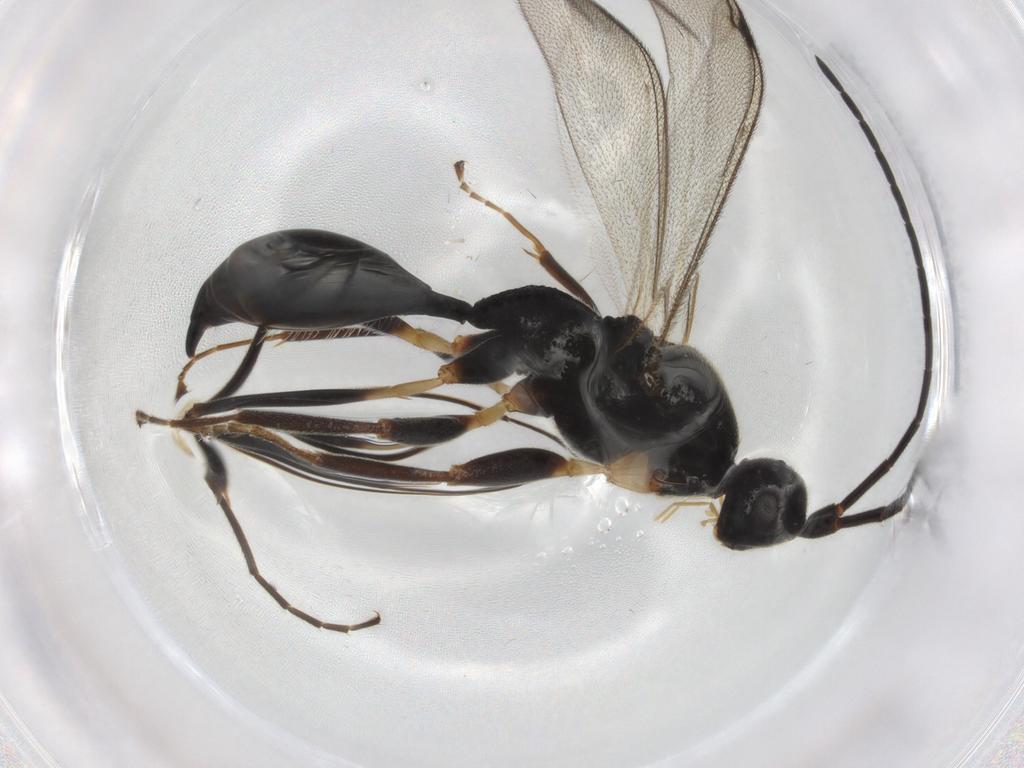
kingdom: Animalia
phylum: Arthropoda
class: Insecta
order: Hymenoptera
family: Proctotrupidae
